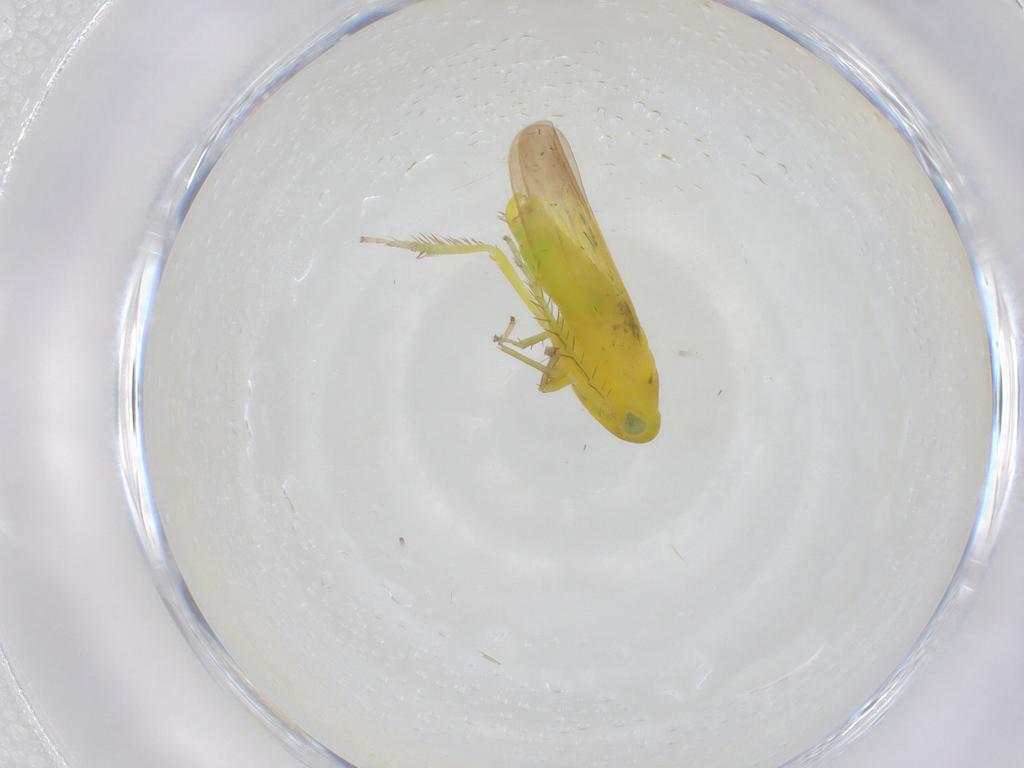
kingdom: Animalia
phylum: Arthropoda
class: Insecta
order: Hemiptera
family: Cicadellidae
